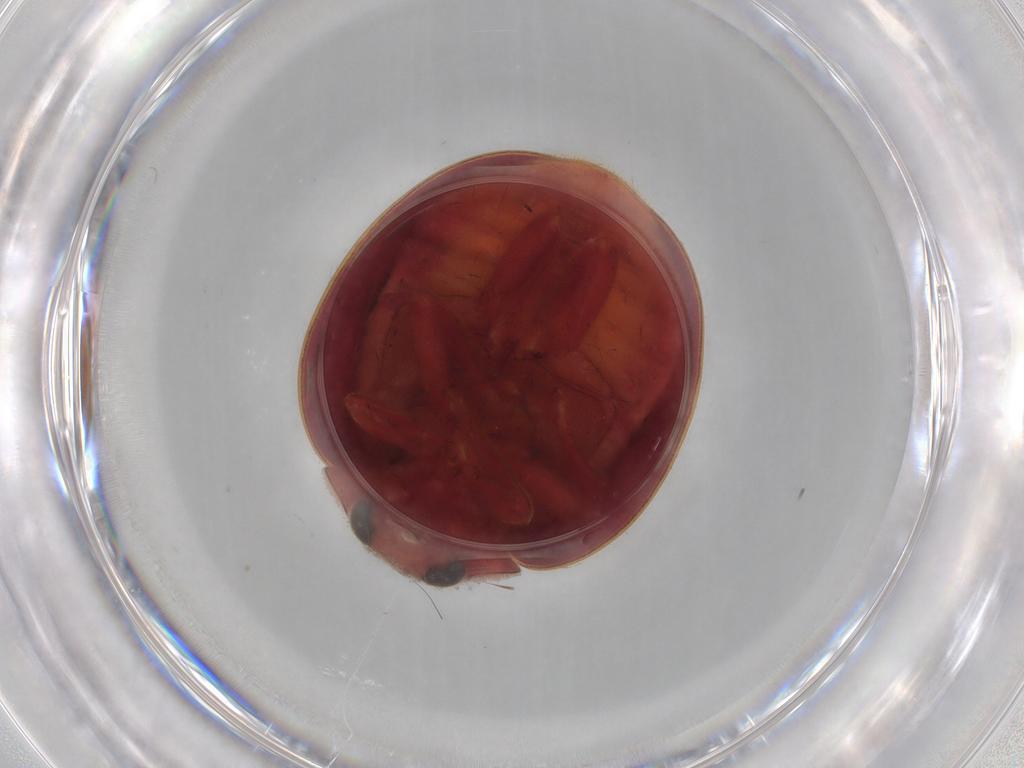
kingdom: Animalia
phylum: Arthropoda
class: Insecta
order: Coleoptera
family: Coccinellidae
